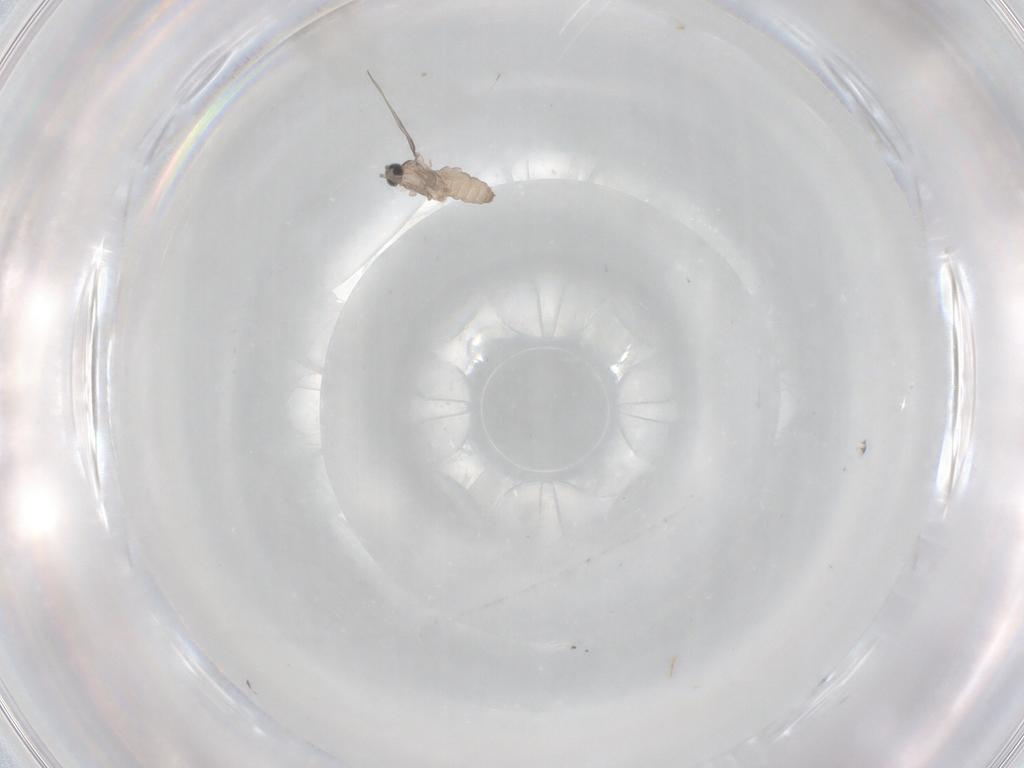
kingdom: Animalia
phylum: Arthropoda
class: Insecta
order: Diptera
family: Cecidomyiidae
